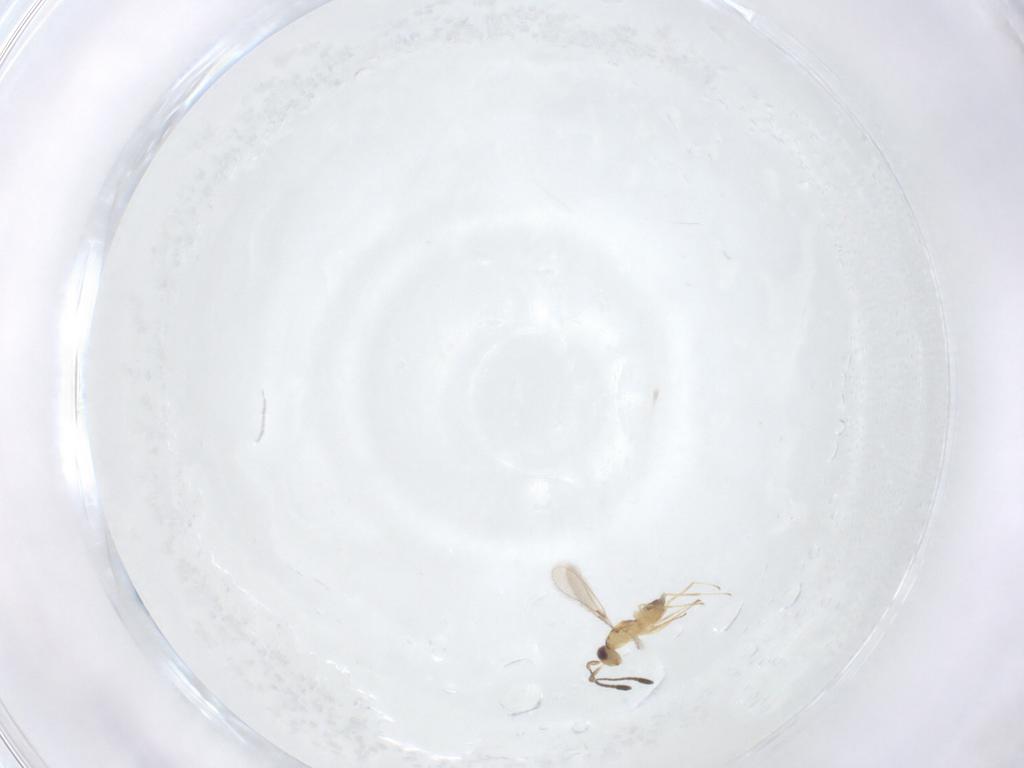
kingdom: Animalia
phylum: Arthropoda
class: Insecta
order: Hymenoptera
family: Mymaridae
